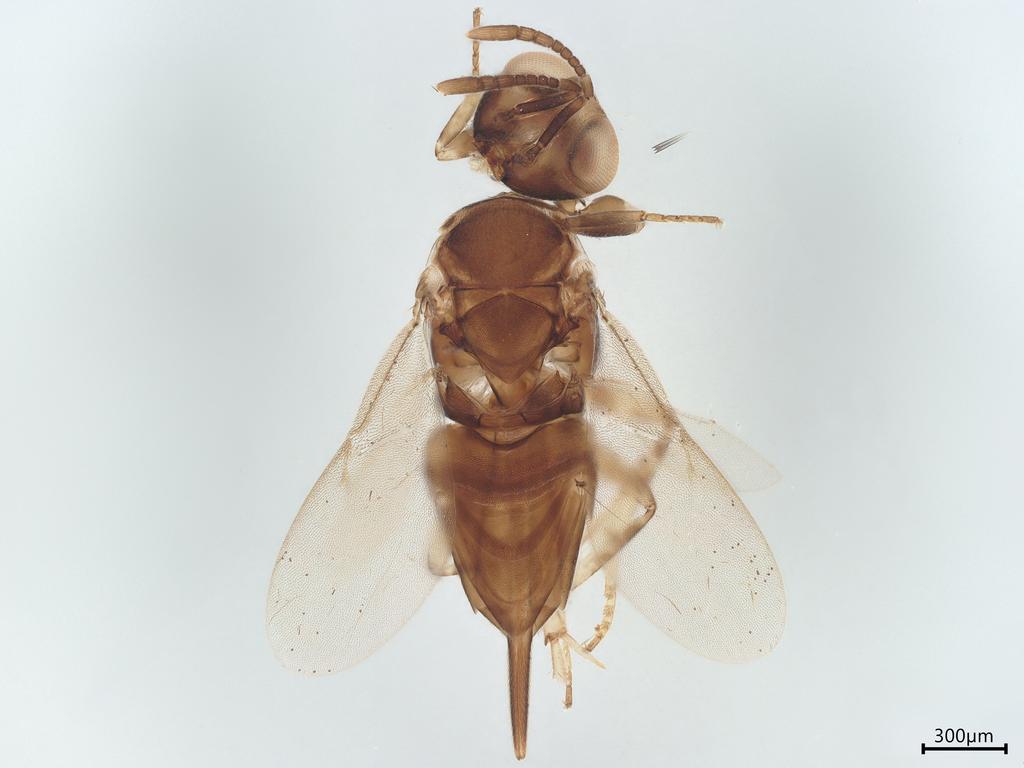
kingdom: Animalia
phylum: Arthropoda
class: Insecta
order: Hymenoptera
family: Encyrtidae
